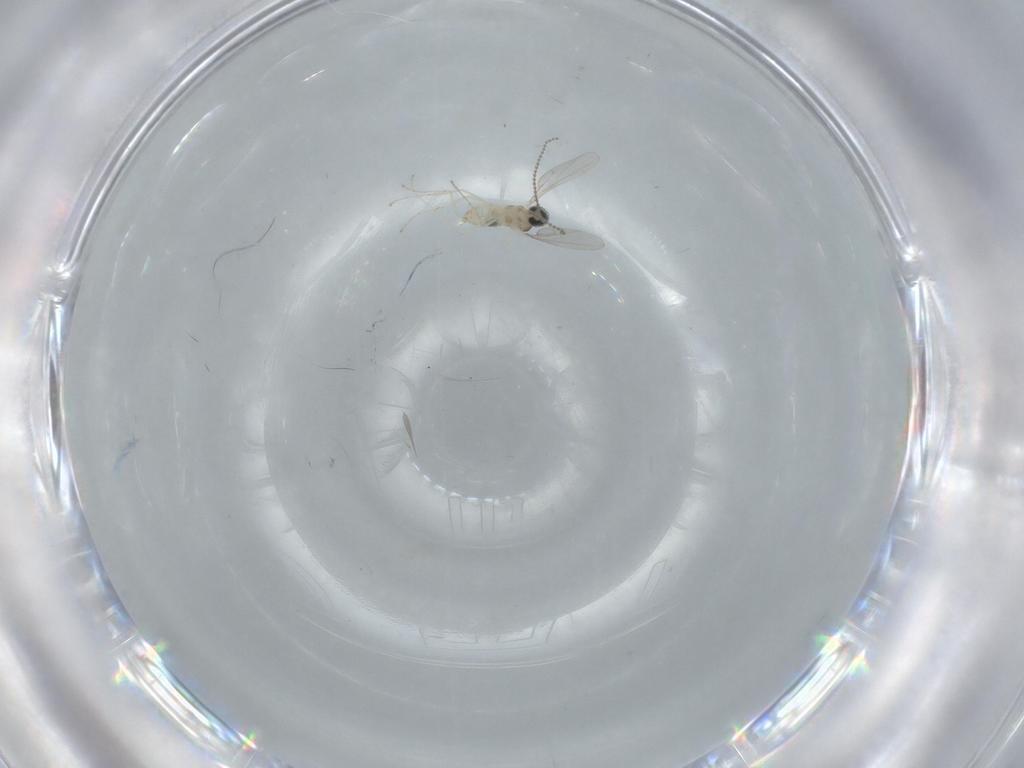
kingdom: Animalia
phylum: Arthropoda
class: Insecta
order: Diptera
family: Cecidomyiidae
